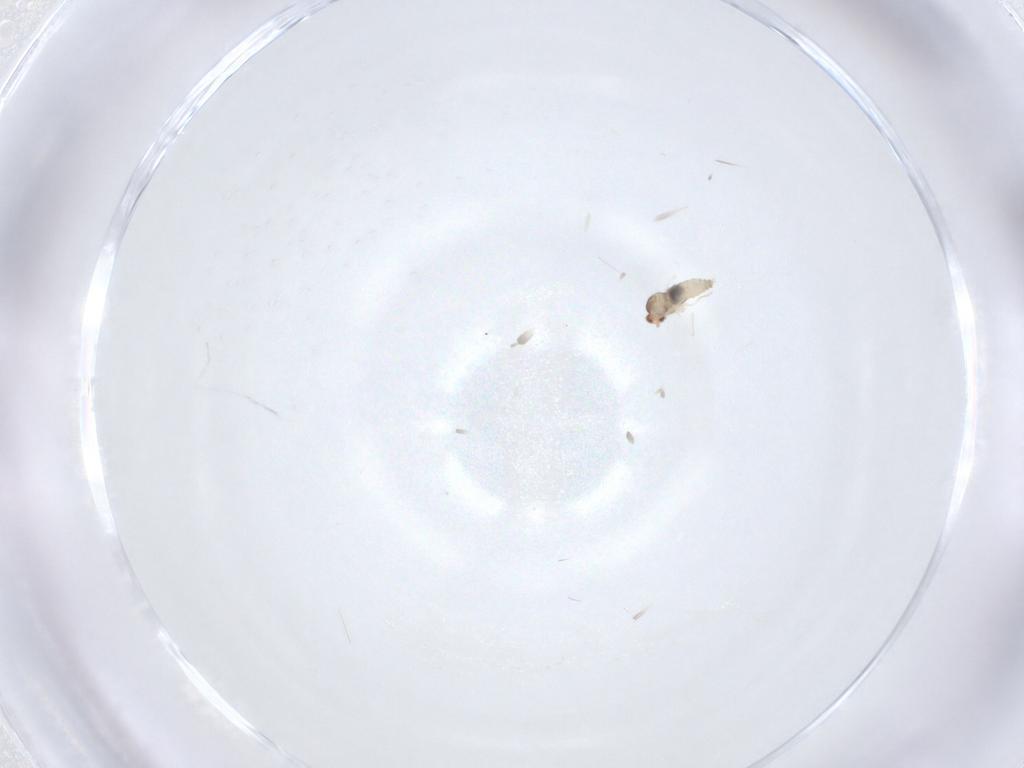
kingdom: Animalia
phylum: Arthropoda
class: Insecta
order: Diptera
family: Cecidomyiidae
